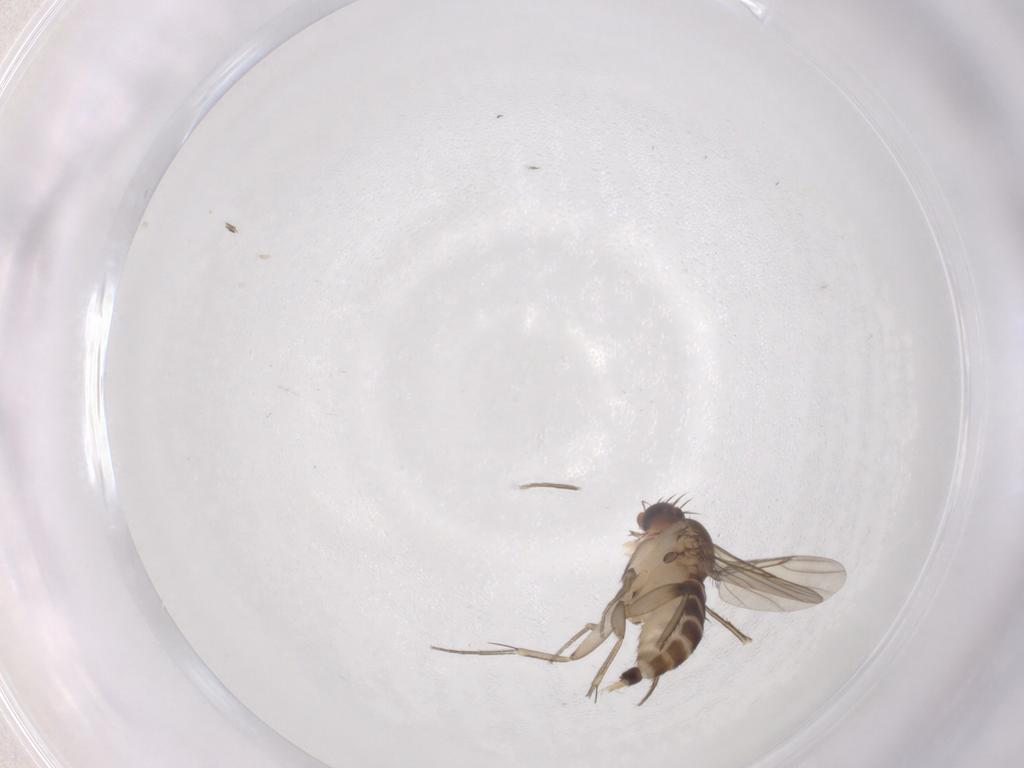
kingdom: Animalia
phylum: Arthropoda
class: Insecta
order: Diptera
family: Phoridae
